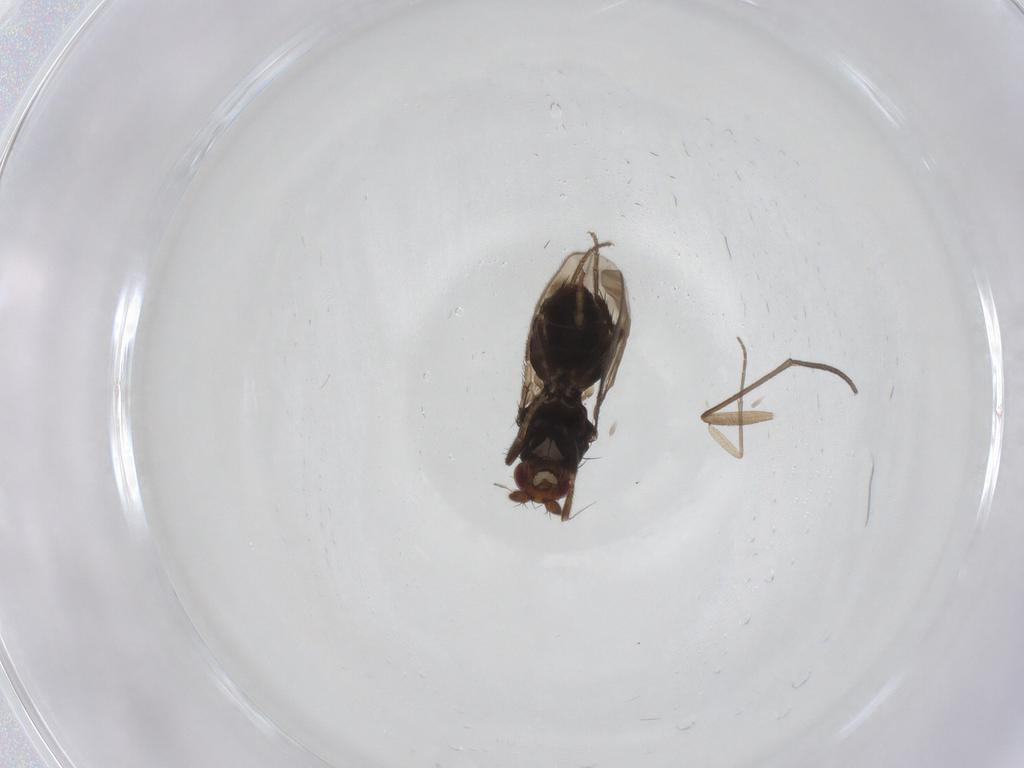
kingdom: Animalia
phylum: Arthropoda
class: Insecta
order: Diptera
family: Sphaeroceridae
